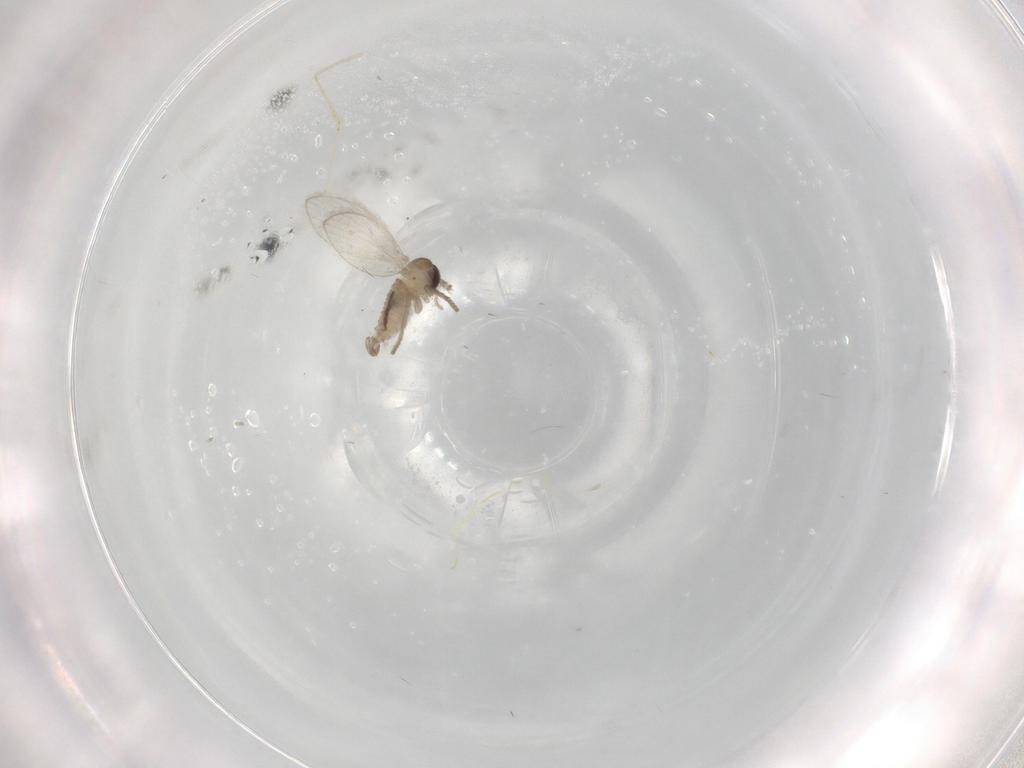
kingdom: Animalia
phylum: Arthropoda
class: Insecta
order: Diptera
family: Psychodidae
